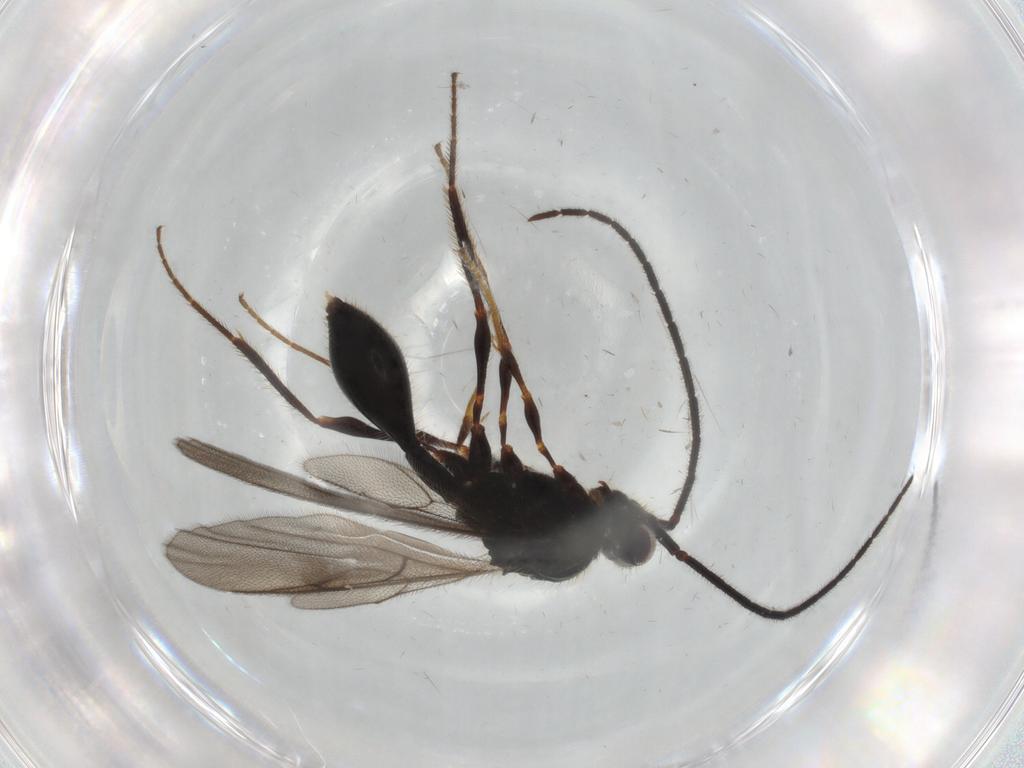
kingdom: Animalia
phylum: Arthropoda
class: Insecta
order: Hymenoptera
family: Diapriidae
